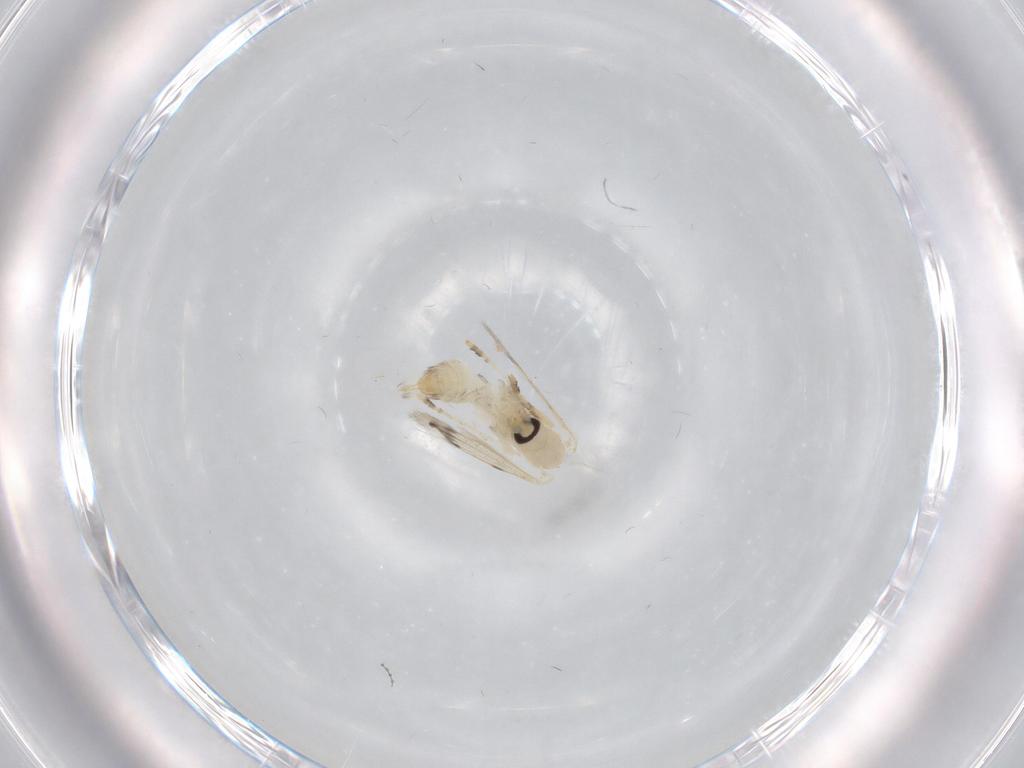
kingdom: Animalia
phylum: Arthropoda
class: Insecta
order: Diptera
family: Psychodidae
